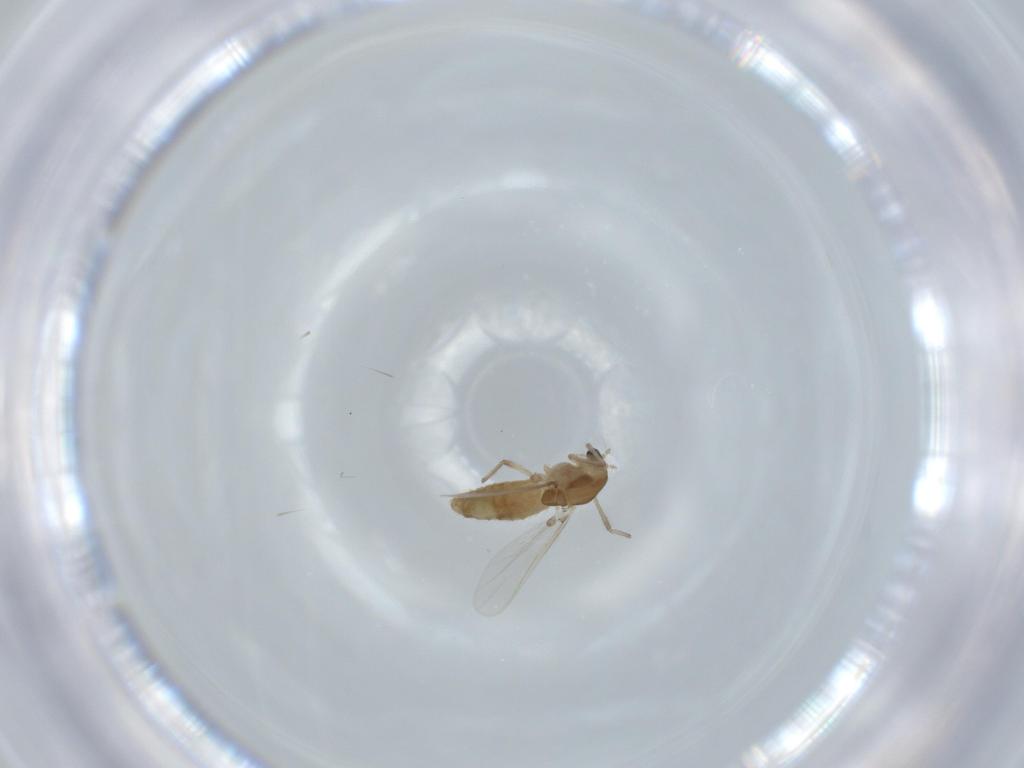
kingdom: Animalia
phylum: Arthropoda
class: Insecta
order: Diptera
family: Chironomidae
